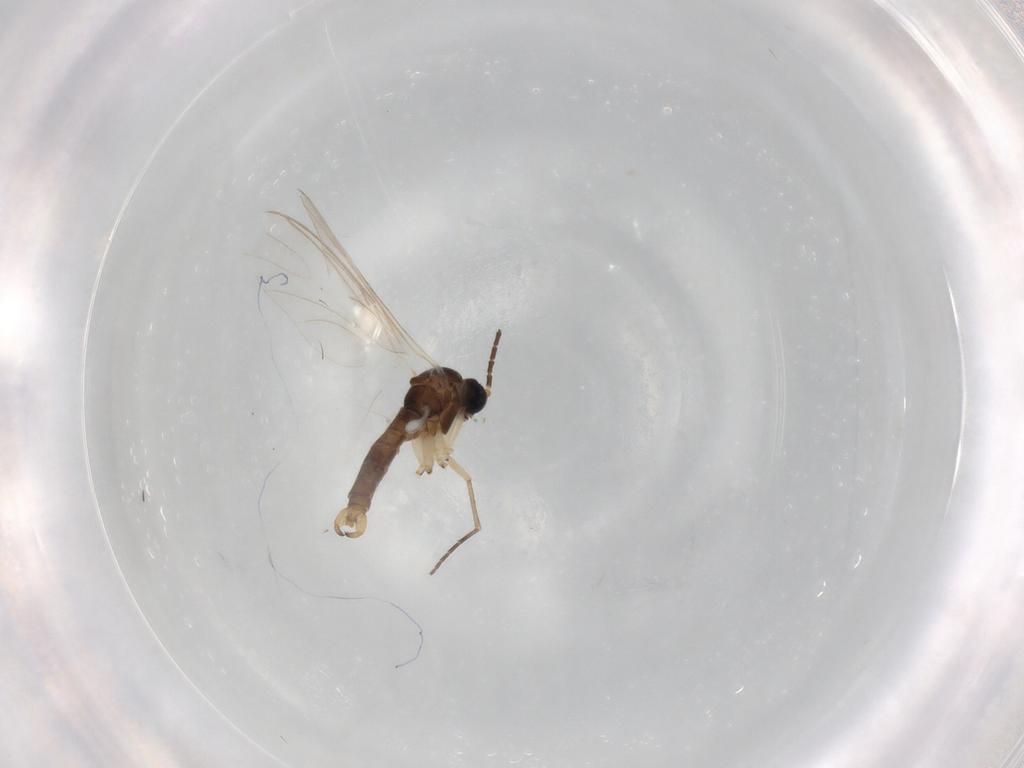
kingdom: Animalia
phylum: Arthropoda
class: Insecta
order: Diptera
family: Sciaridae
